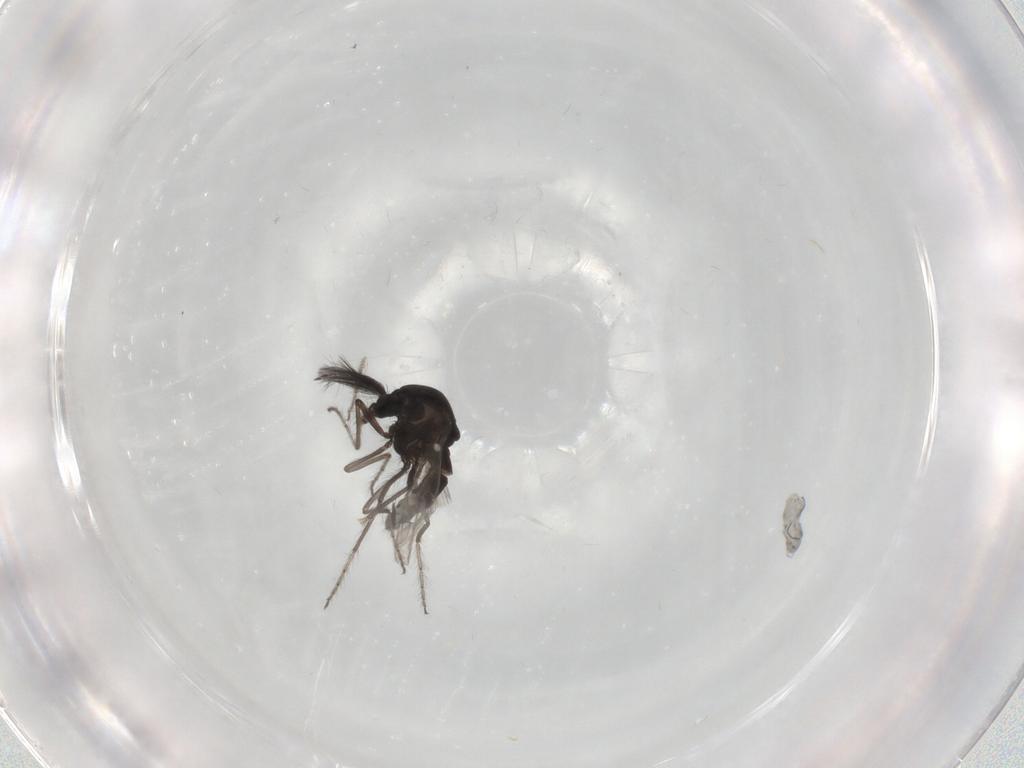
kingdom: Animalia
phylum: Arthropoda
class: Insecta
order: Diptera
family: Ceratopogonidae
